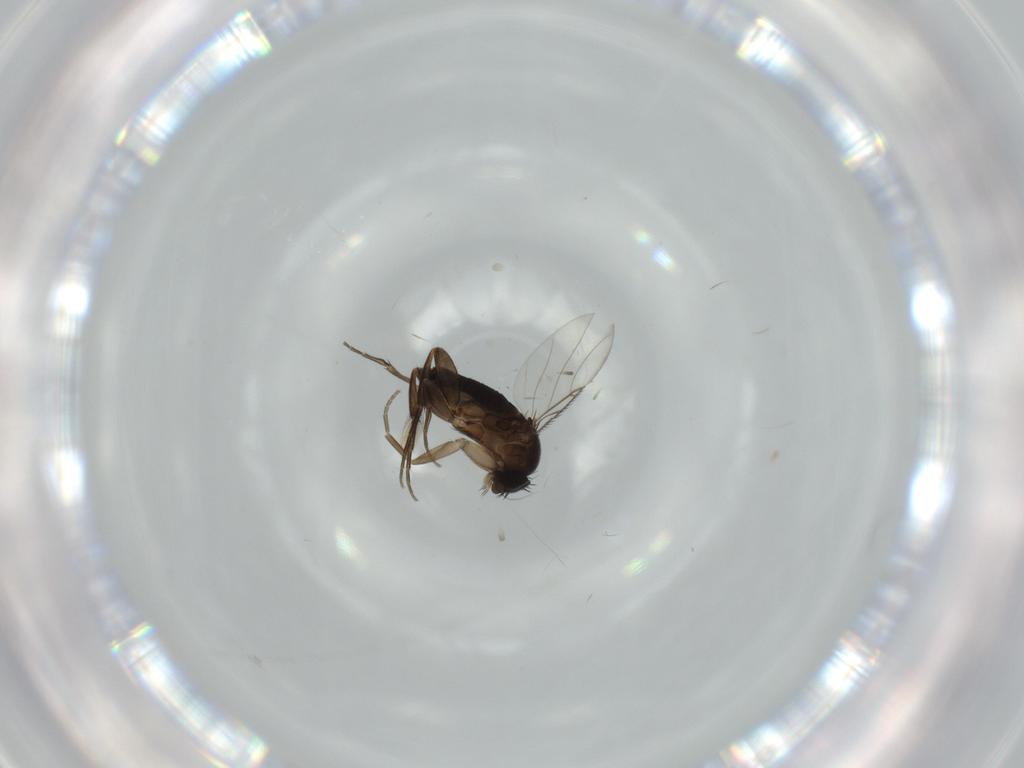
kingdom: Animalia
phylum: Arthropoda
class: Insecta
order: Diptera
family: Phoridae
